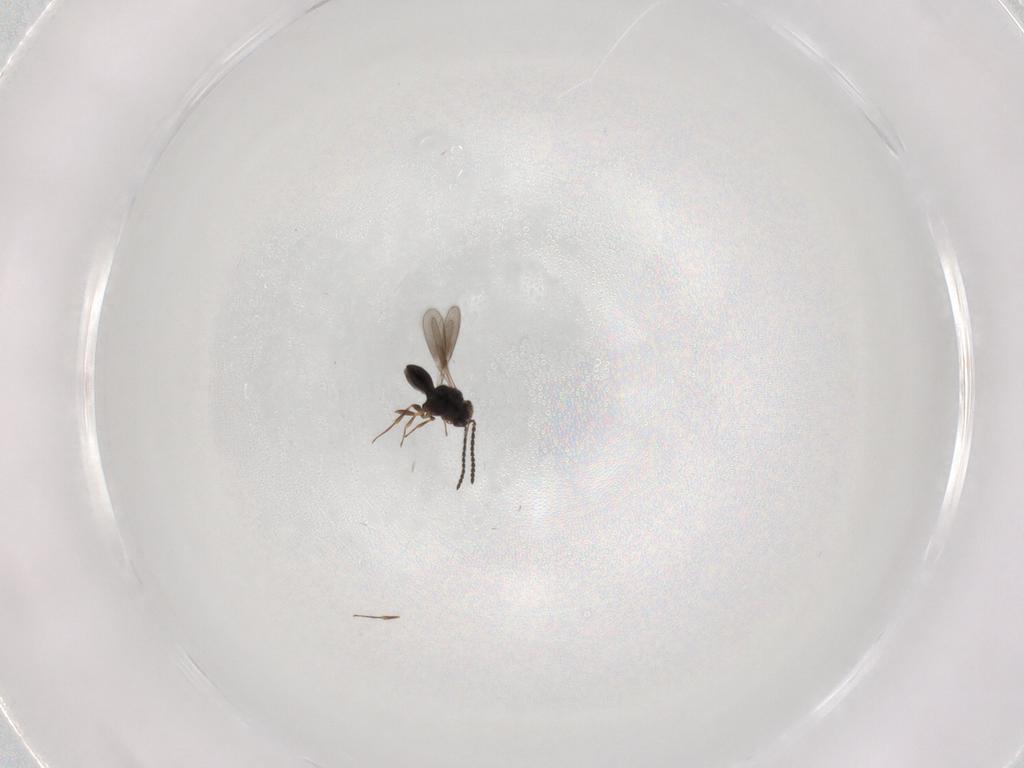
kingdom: Animalia
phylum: Arthropoda
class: Insecta
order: Hymenoptera
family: Scelionidae
